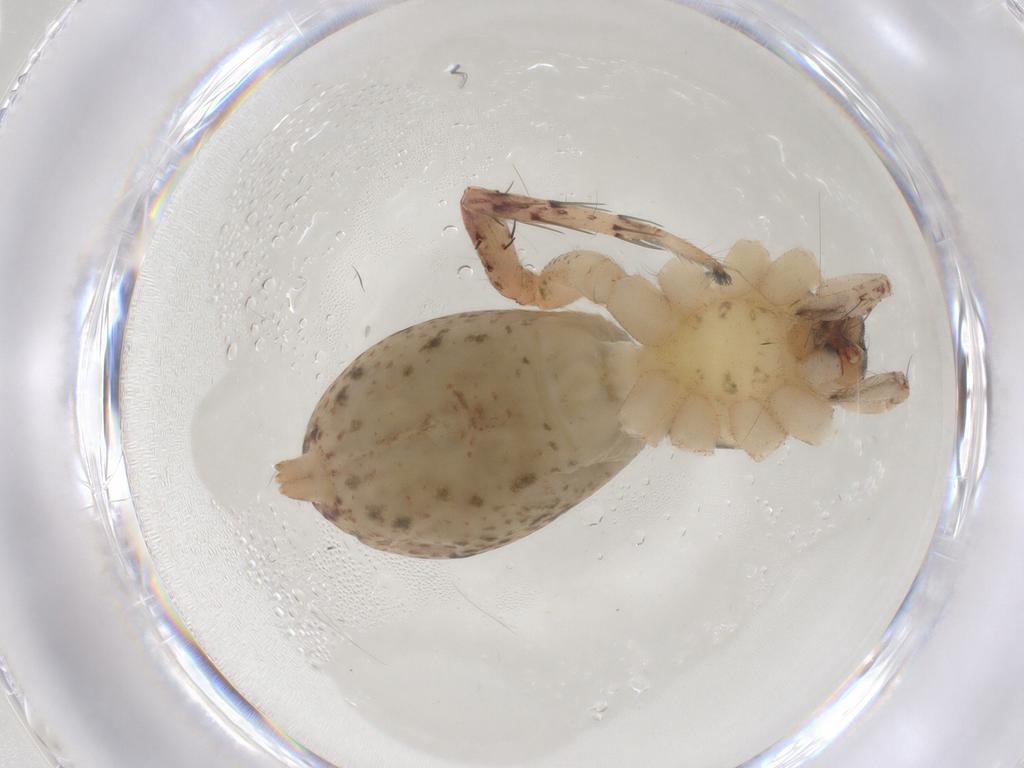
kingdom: Animalia
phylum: Arthropoda
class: Arachnida
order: Araneae
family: Anyphaenidae
